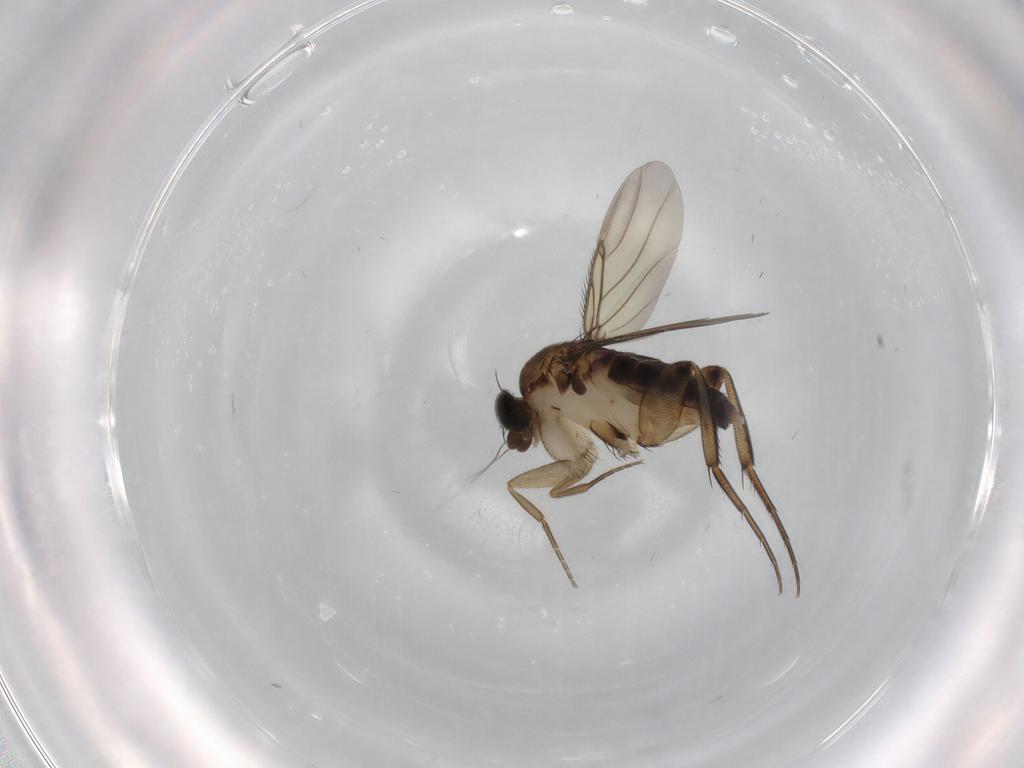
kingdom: Animalia
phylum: Arthropoda
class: Insecta
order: Diptera
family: Phoridae
